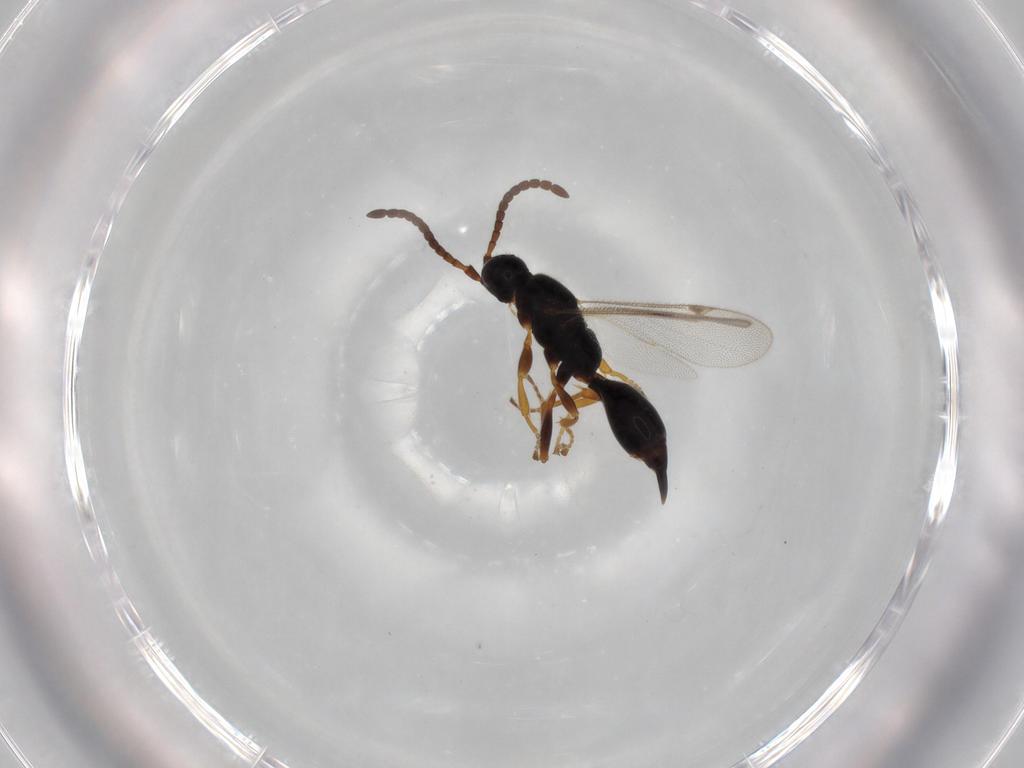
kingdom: Animalia
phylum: Arthropoda
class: Insecta
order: Hymenoptera
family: Proctotrupidae
